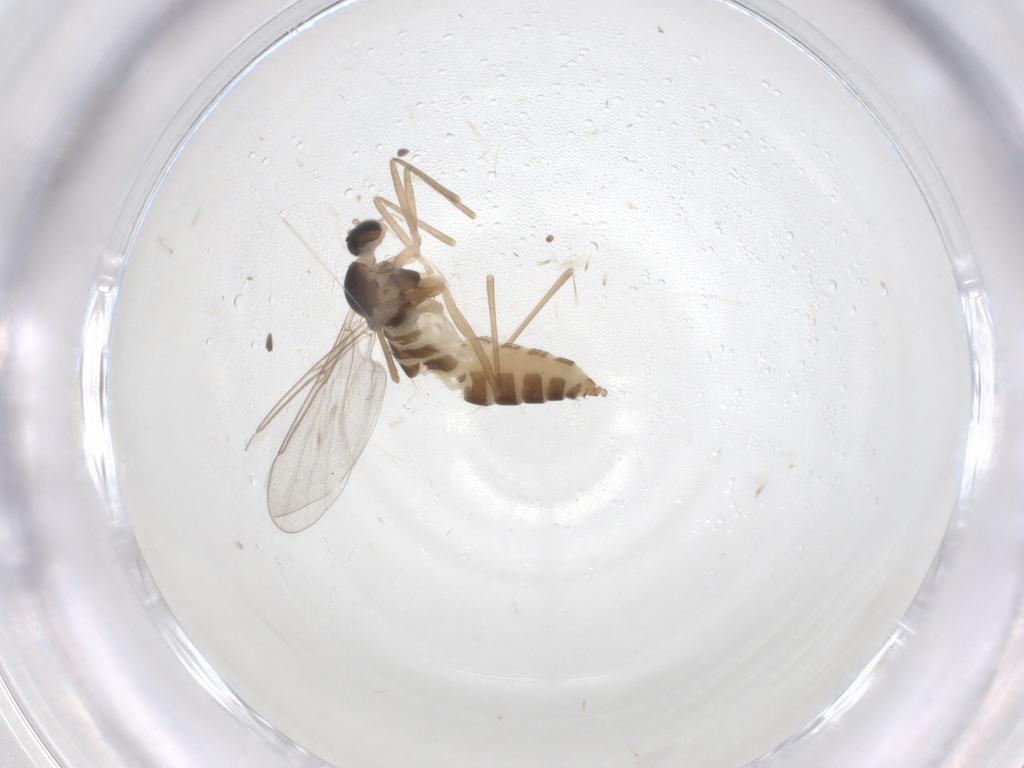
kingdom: Animalia
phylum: Arthropoda
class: Insecta
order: Diptera
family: Cecidomyiidae
